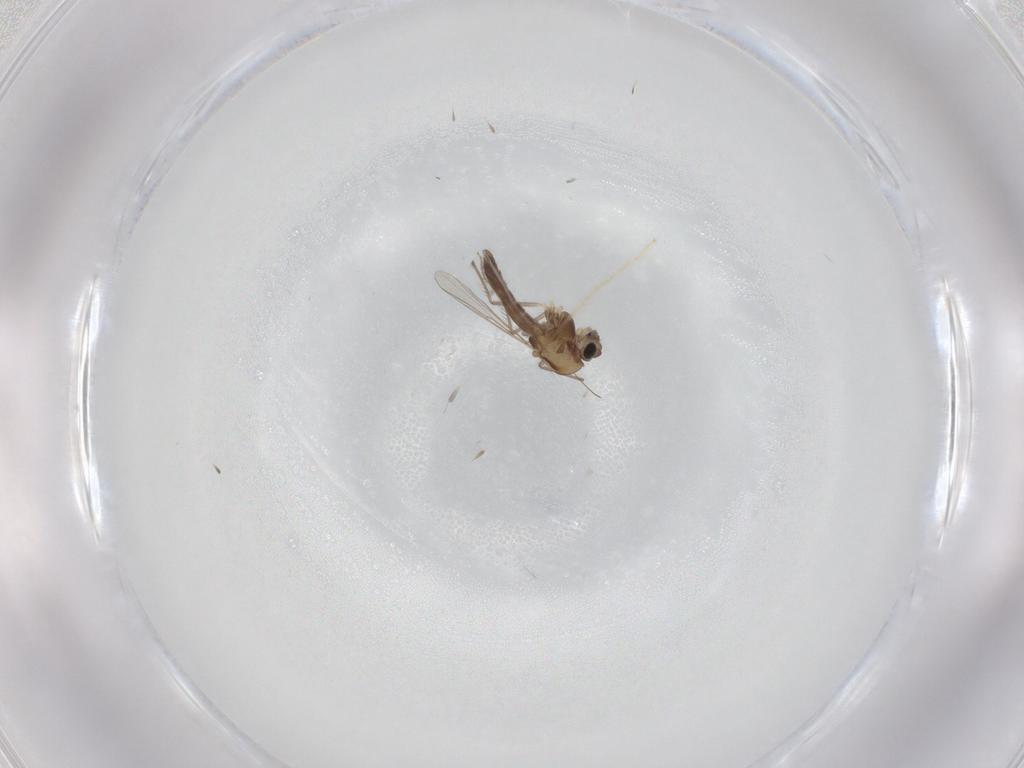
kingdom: Animalia
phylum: Arthropoda
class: Insecta
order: Diptera
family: Chironomidae
